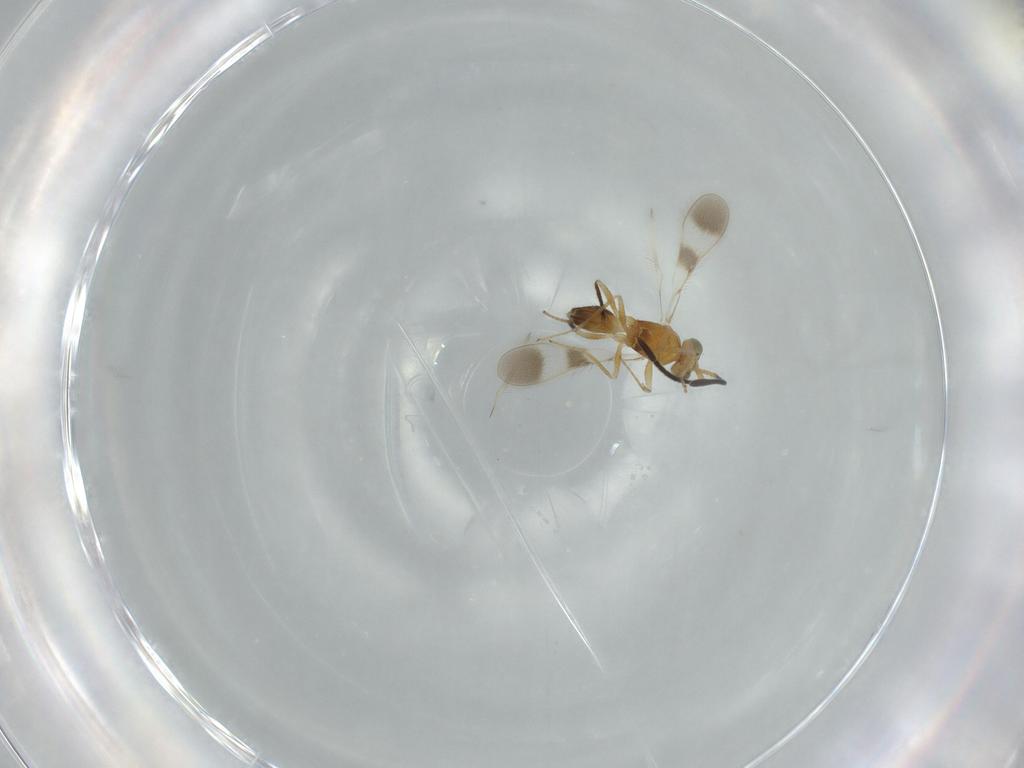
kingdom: Animalia
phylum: Arthropoda
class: Insecta
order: Hymenoptera
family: Mymaridae
